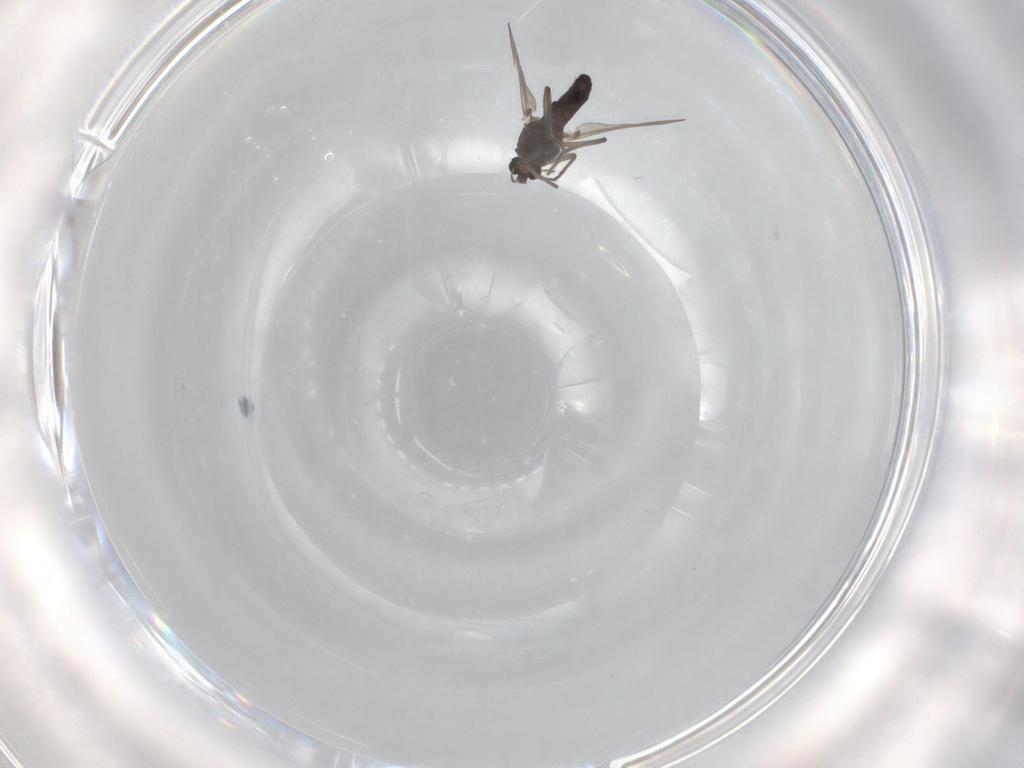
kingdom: Animalia
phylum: Arthropoda
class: Insecta
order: Diptera
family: Chironomidae
